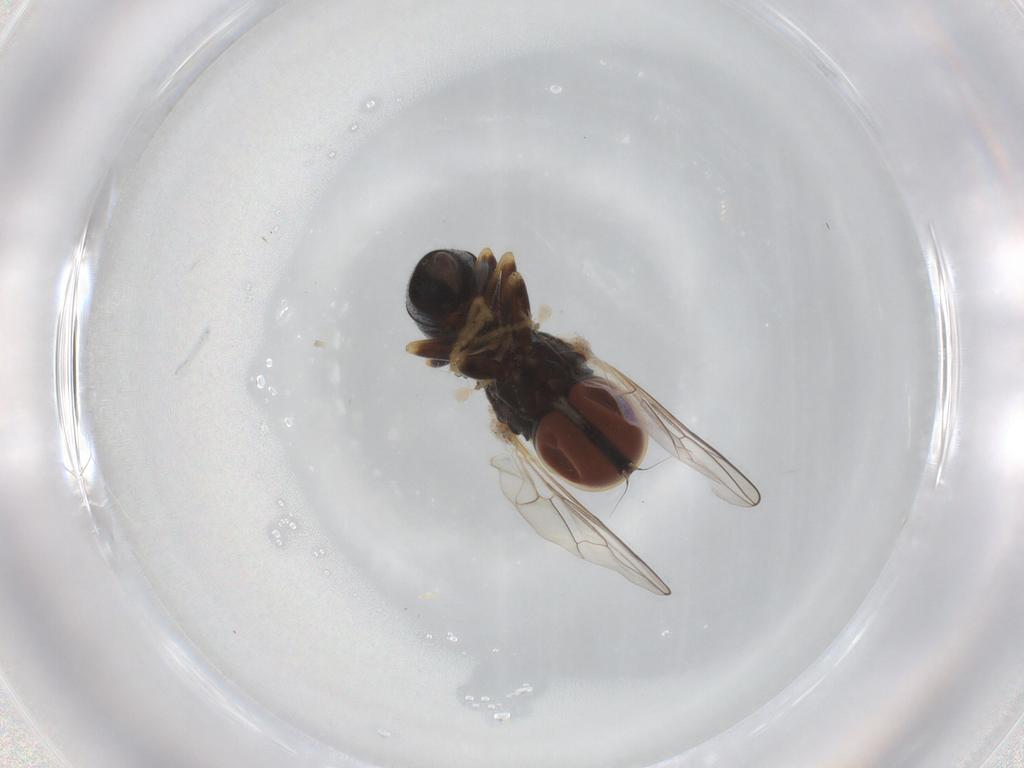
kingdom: Animalia
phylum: Arthropoda
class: Insecta
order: Diptera
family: Pipunculidae
